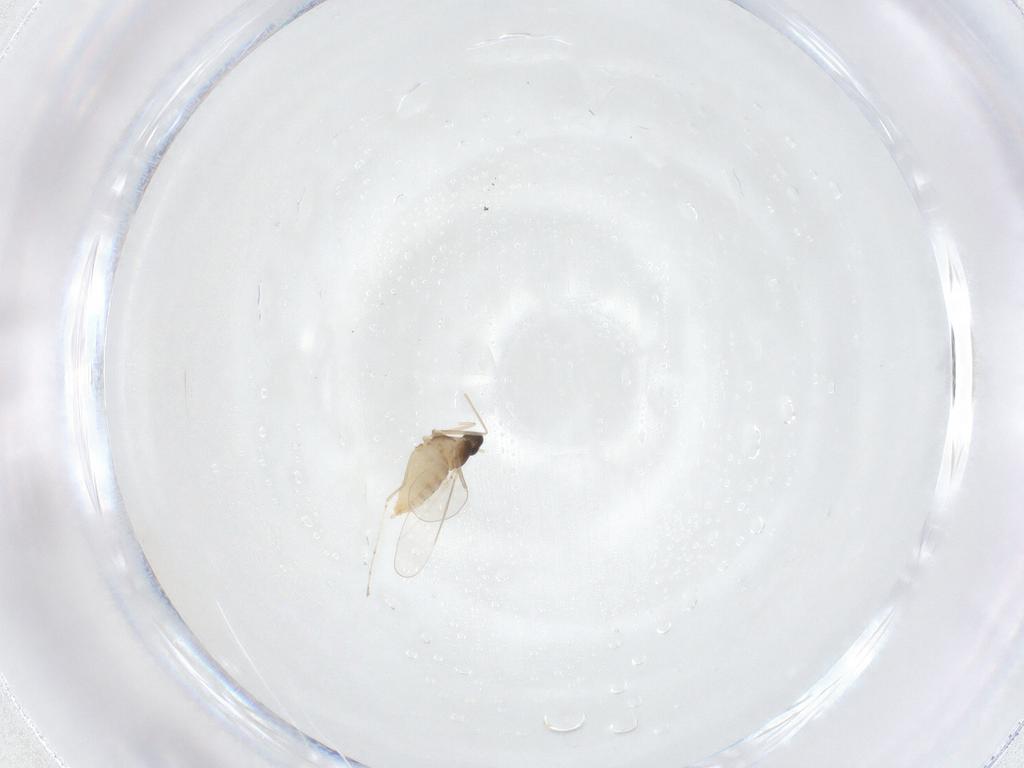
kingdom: Animalia
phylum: Arthropoda
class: Insecta
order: Diptera
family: Cecidomyiidae
